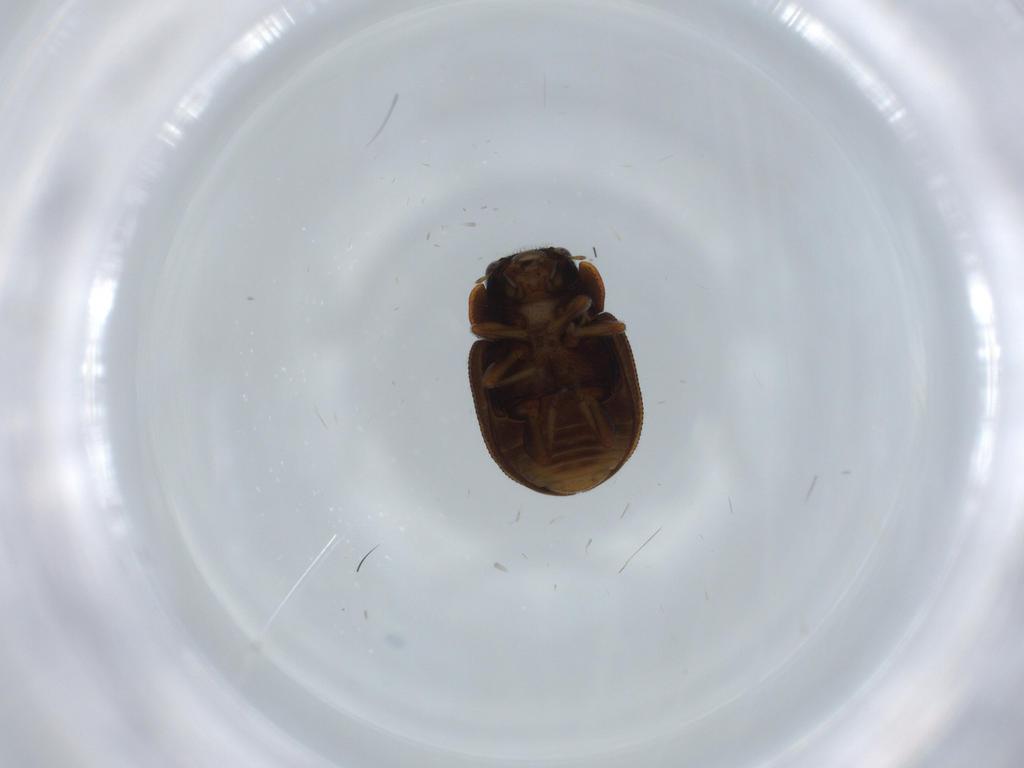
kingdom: Animalia
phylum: Arthropoda
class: Insecta
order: Coleoptera
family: Coccinellidae
